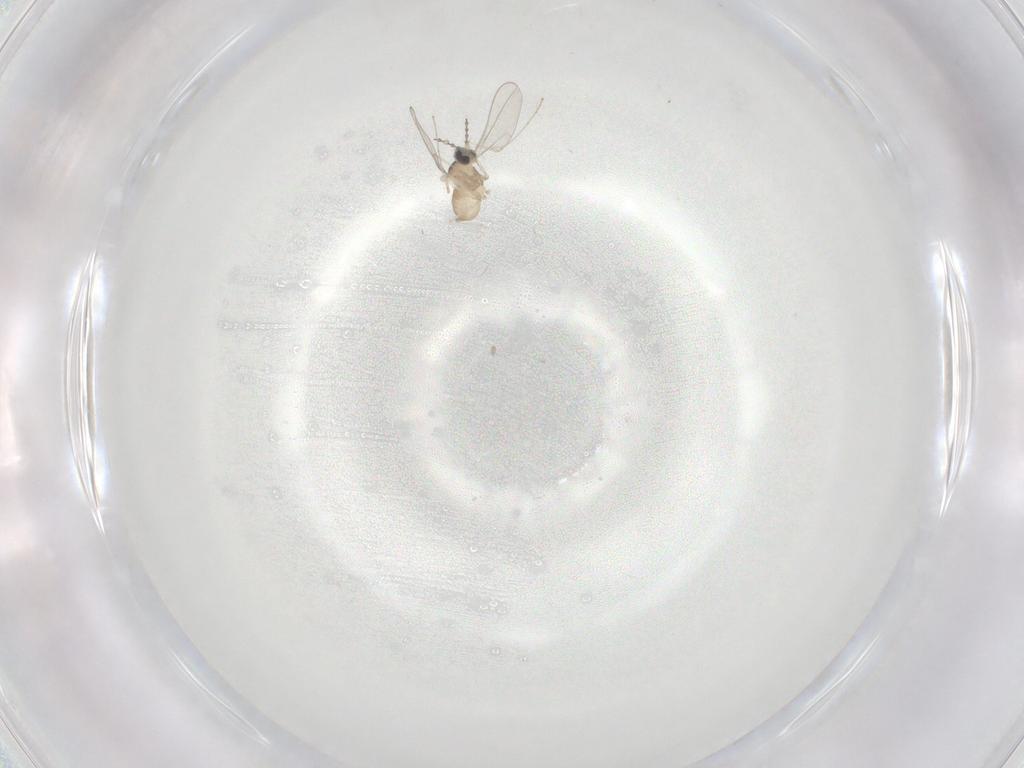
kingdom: Animalia
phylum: Arthropoda
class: Insecta
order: Diptera
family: Cecidomyiidae
